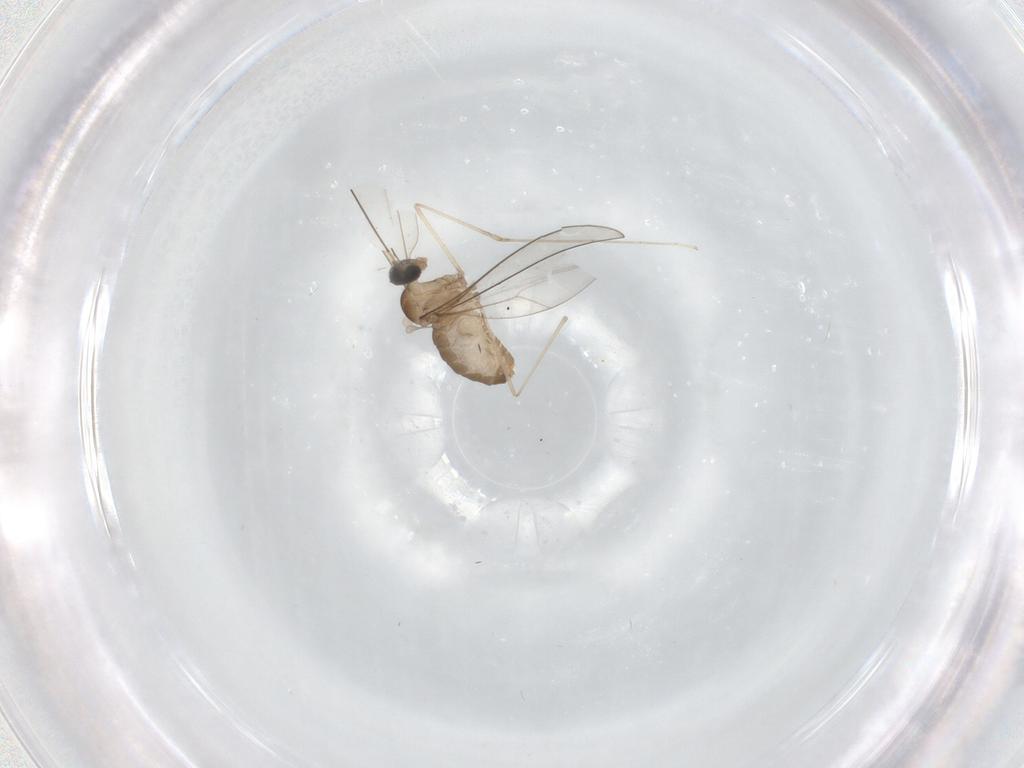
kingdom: Animalia
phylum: Arthropoda
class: Insecta
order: Diptera
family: Cecidomyiidae
